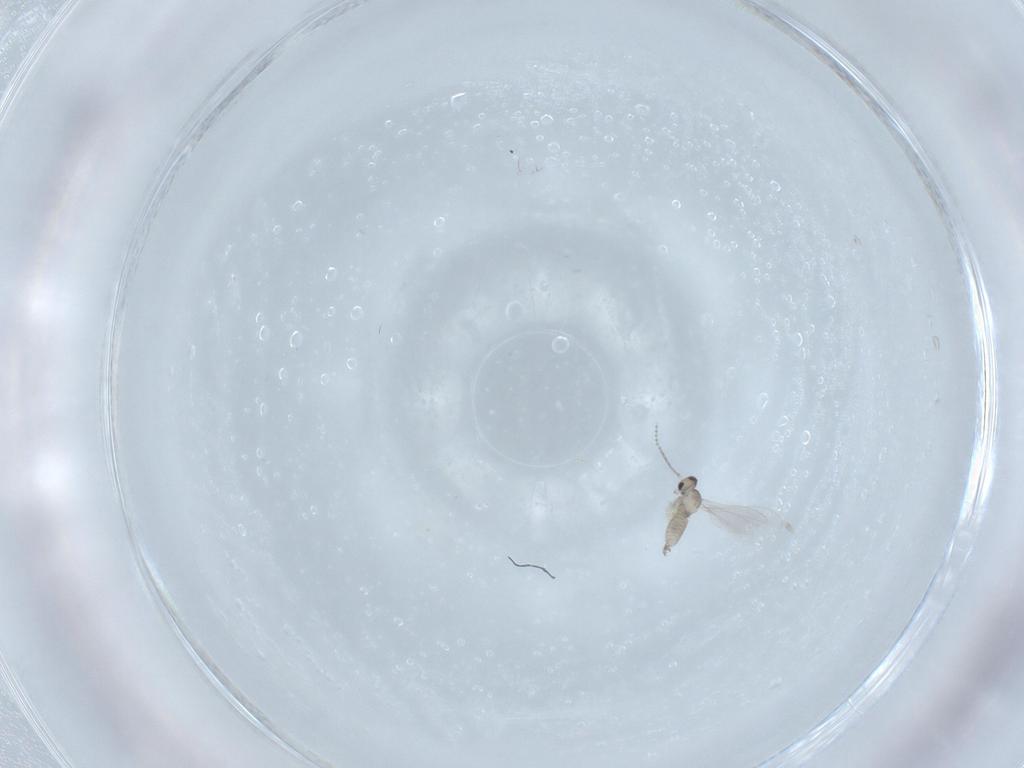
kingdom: Animalia
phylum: Arthropoda
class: Insecta
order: Diptera
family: Cecidomyiidae
